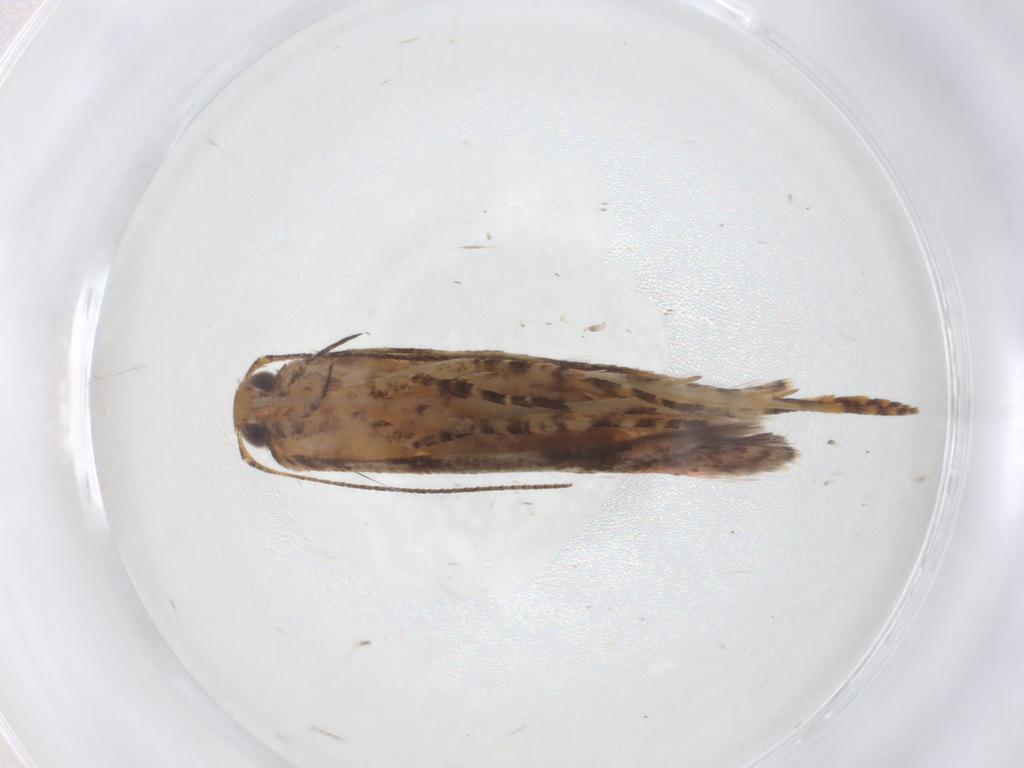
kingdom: Animalia
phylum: Arthropoda
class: Insecta
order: Lepidoptera
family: Gelechiidae
